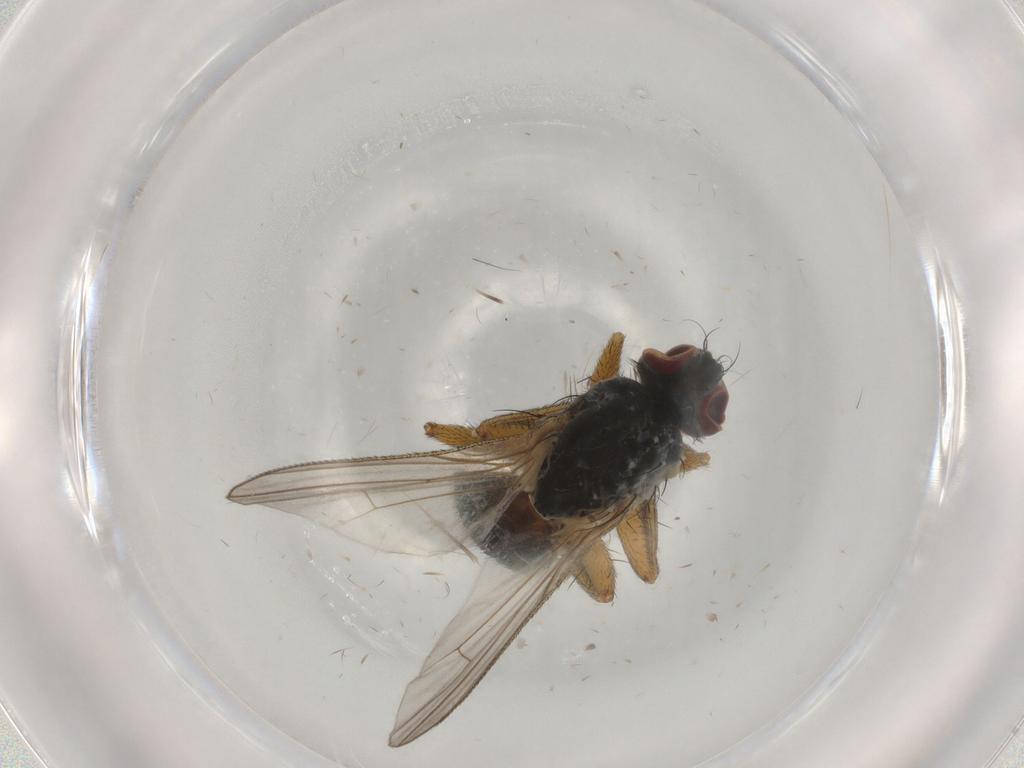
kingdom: Animalia
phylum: Arthropoda
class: Insecta
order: Diptera
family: Muscidae
